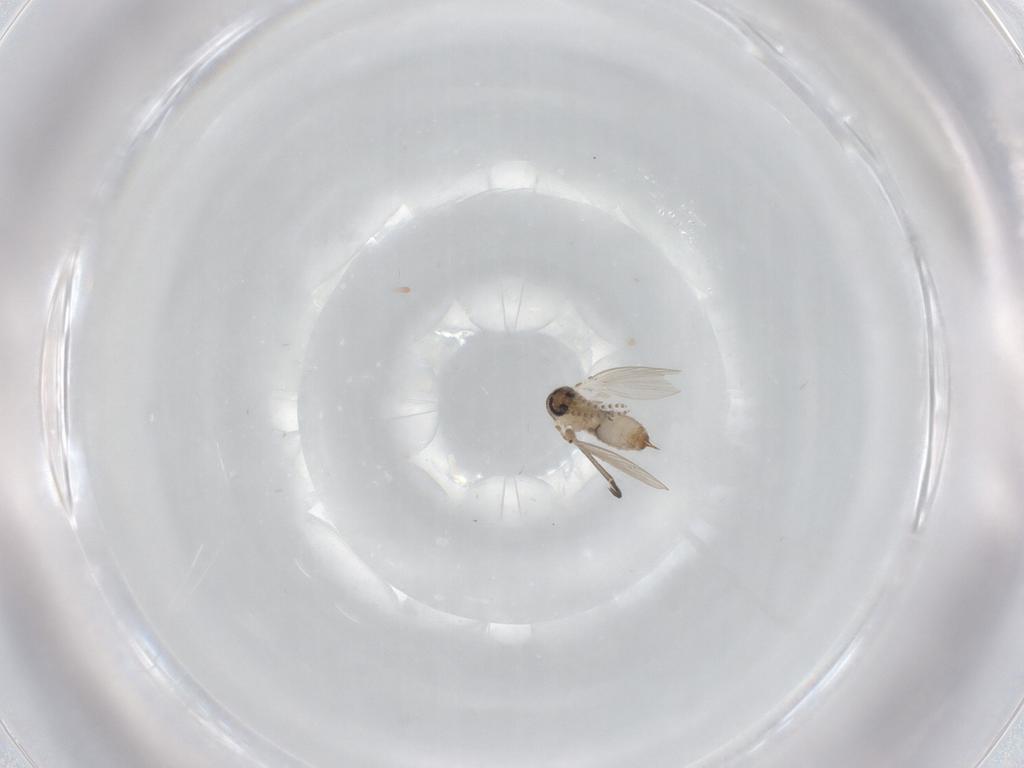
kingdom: Animalia
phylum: Arthropoda
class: Insecta
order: Diptera
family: Sciaridae
